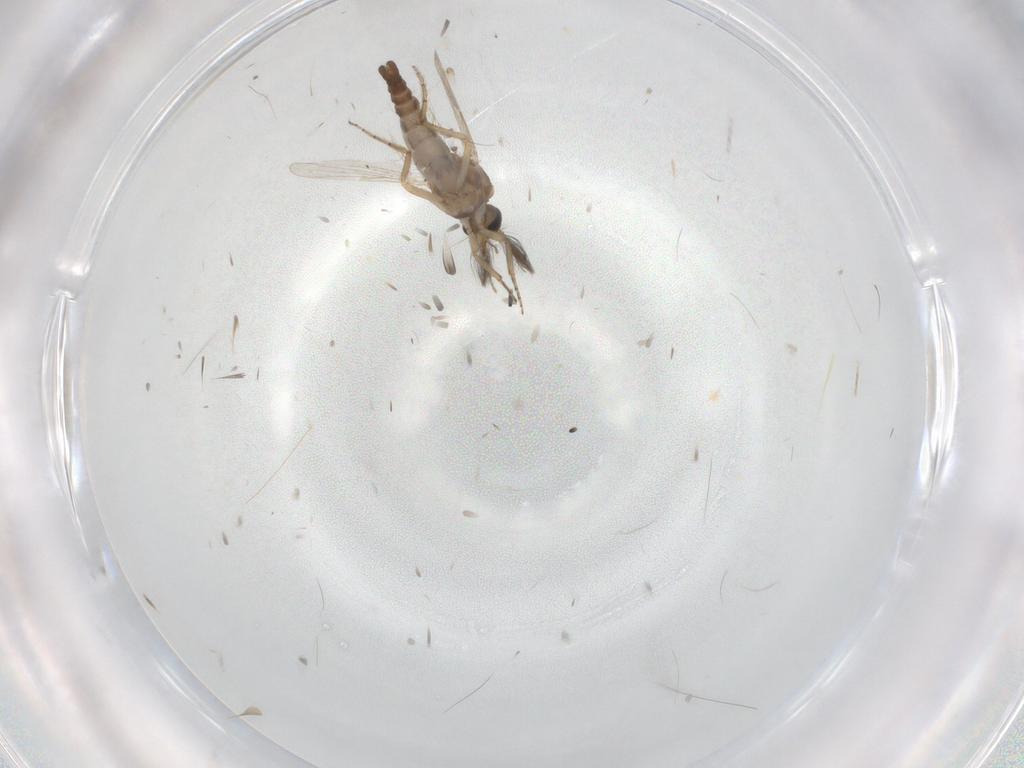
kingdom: Animalia
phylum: Arthropoda
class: Insecta
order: Diptera
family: Ceratopogonidae
